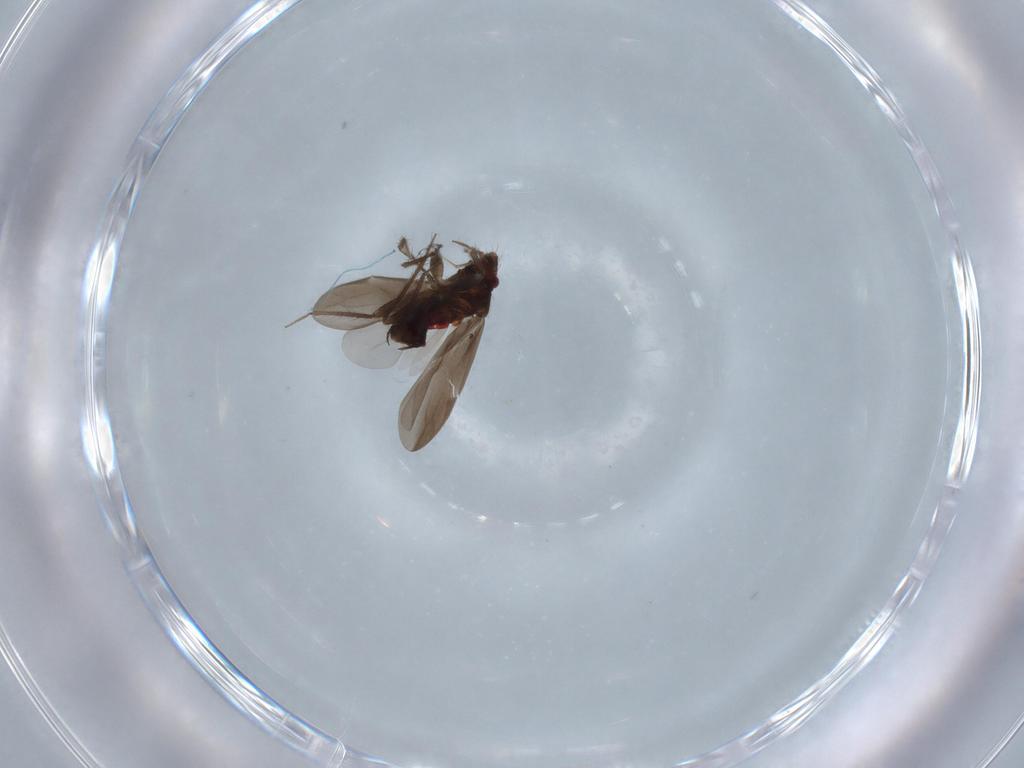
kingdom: Animalia
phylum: Arthropoda
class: Insecta
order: Hemiptera
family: Ceratocombidae
